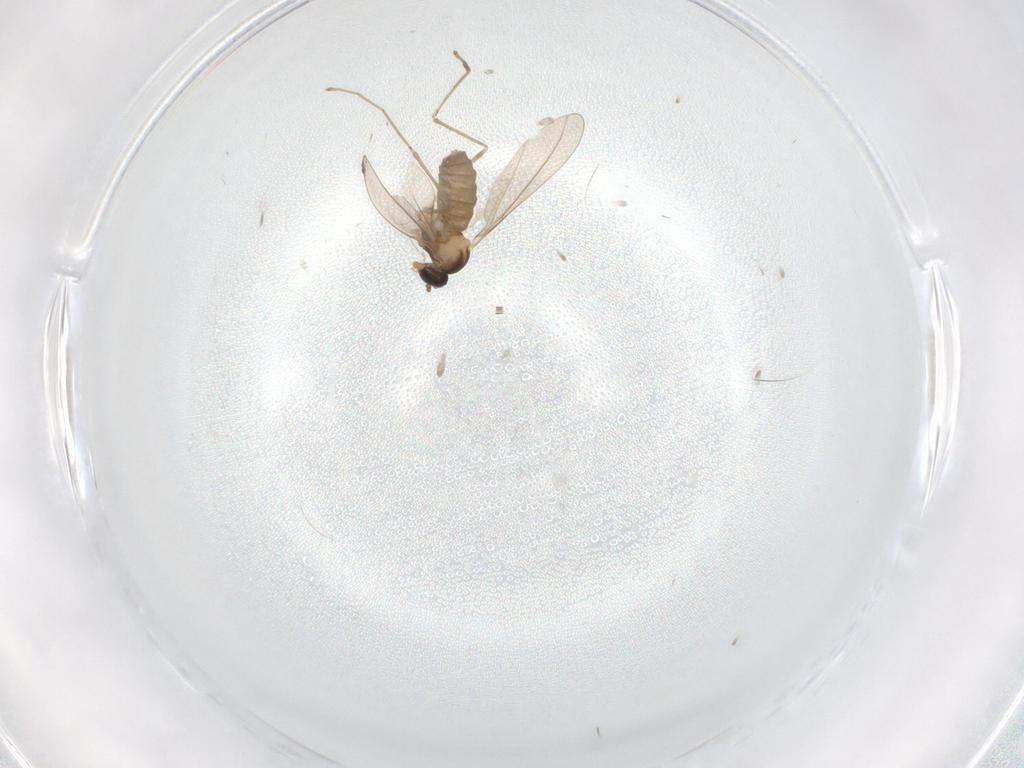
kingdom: Animalia
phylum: Arthropoda
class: Insecta
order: Diptera
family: Cecidomyiidae
